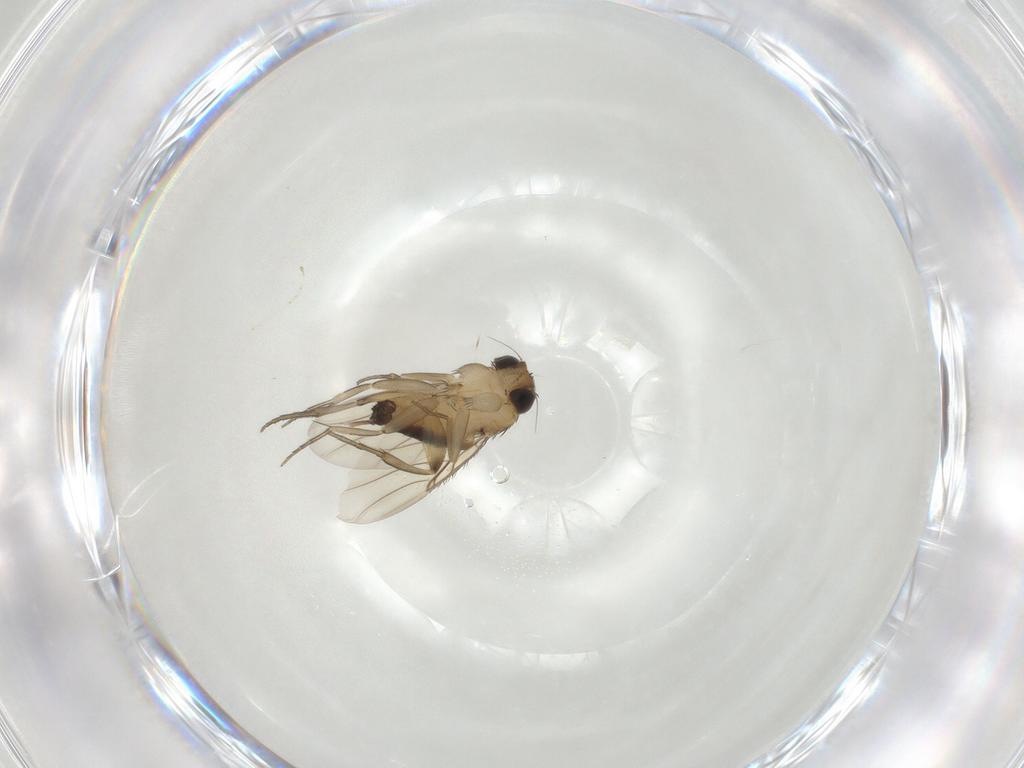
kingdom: Animalia
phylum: Arthropoda
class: Insecta
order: Diptera
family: Phoridae
